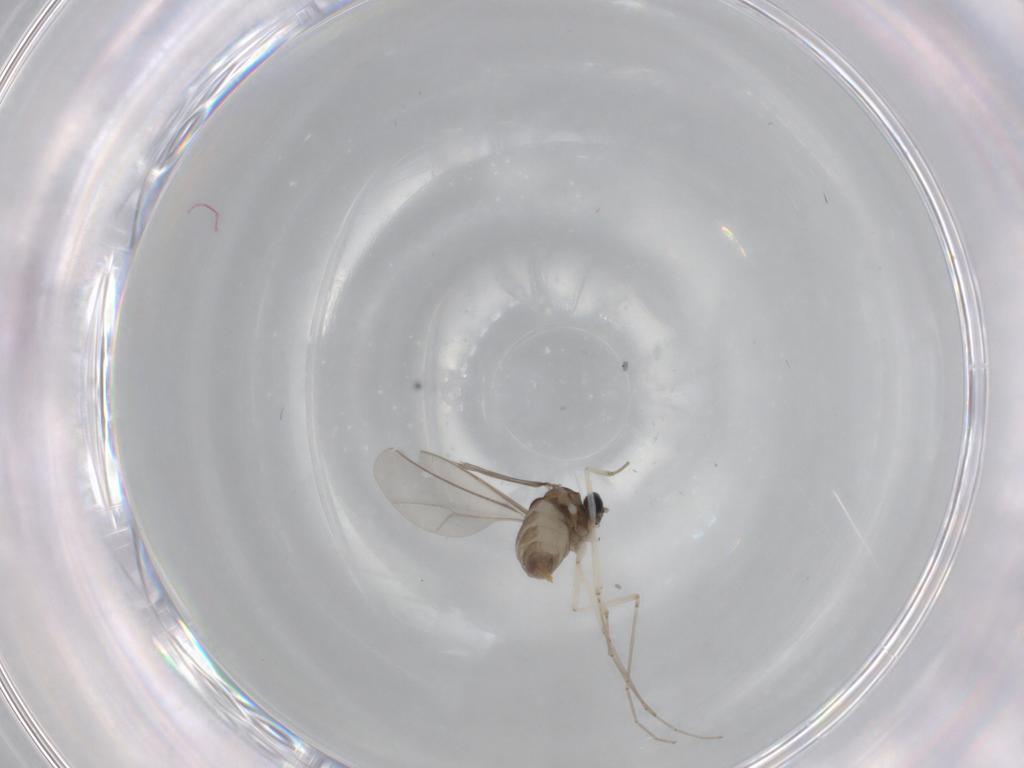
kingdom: Animalia
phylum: Arthropoda
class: Insecta
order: Diptera
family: Cecidomyiidae
